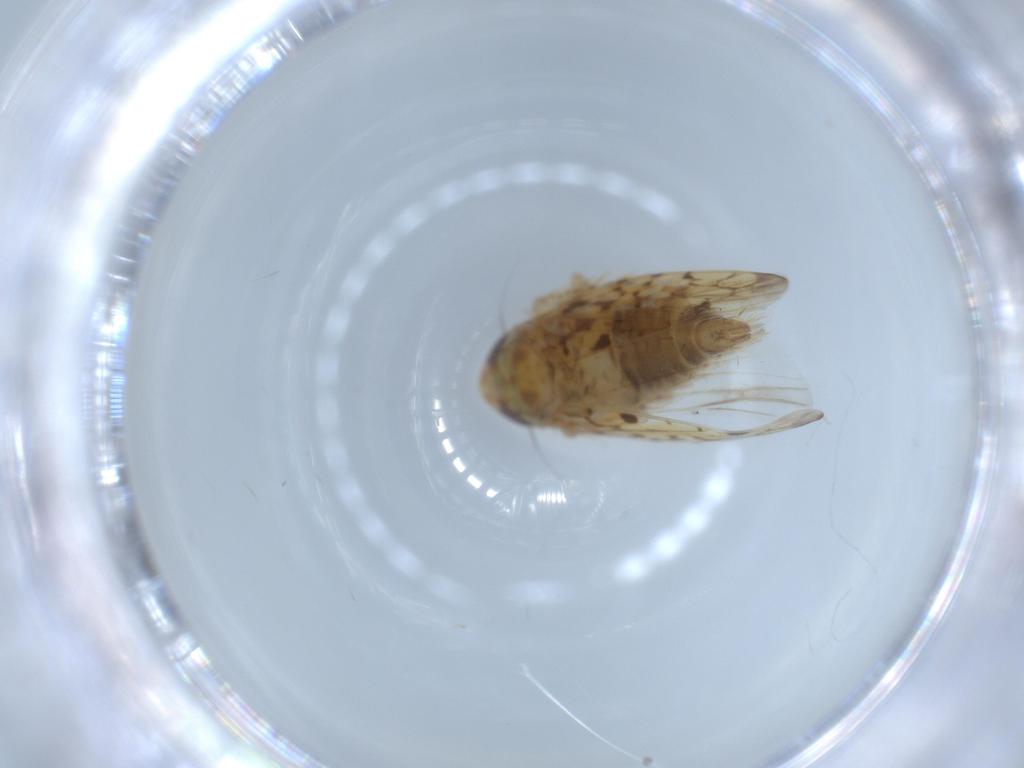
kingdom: Animalia
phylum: Arthropoda
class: Insecta
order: Hemiptera
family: Cicadellidae
